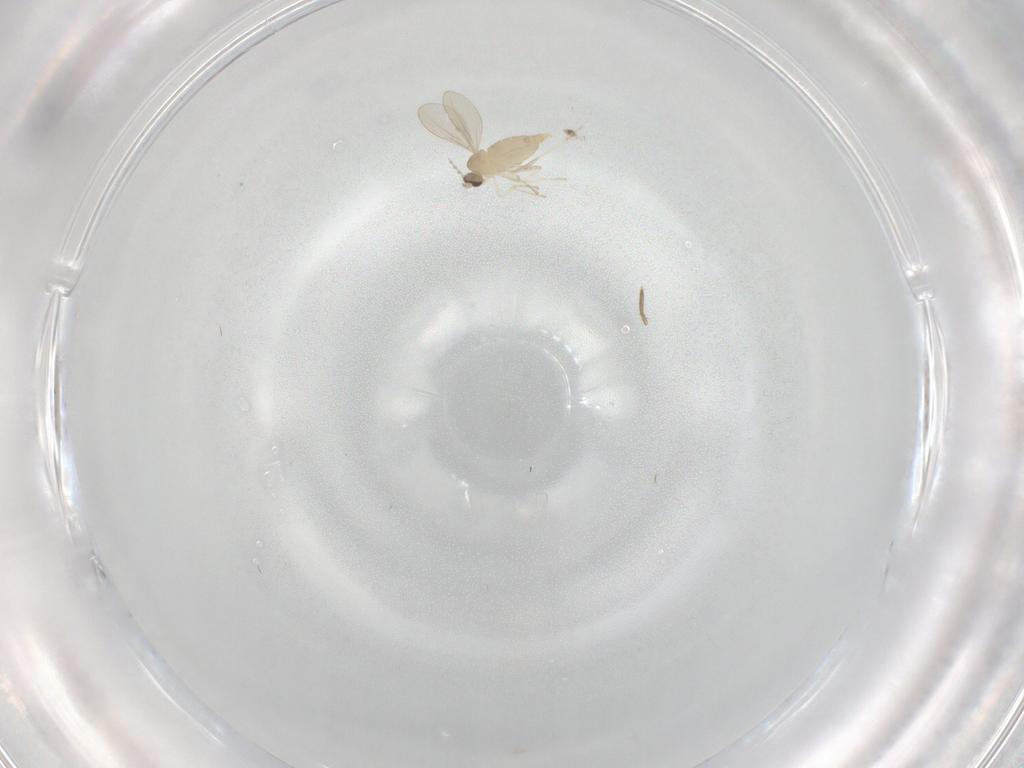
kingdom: Animalia
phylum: Arthropoda
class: Insecta
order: Diptera
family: Cecidomyiidae
